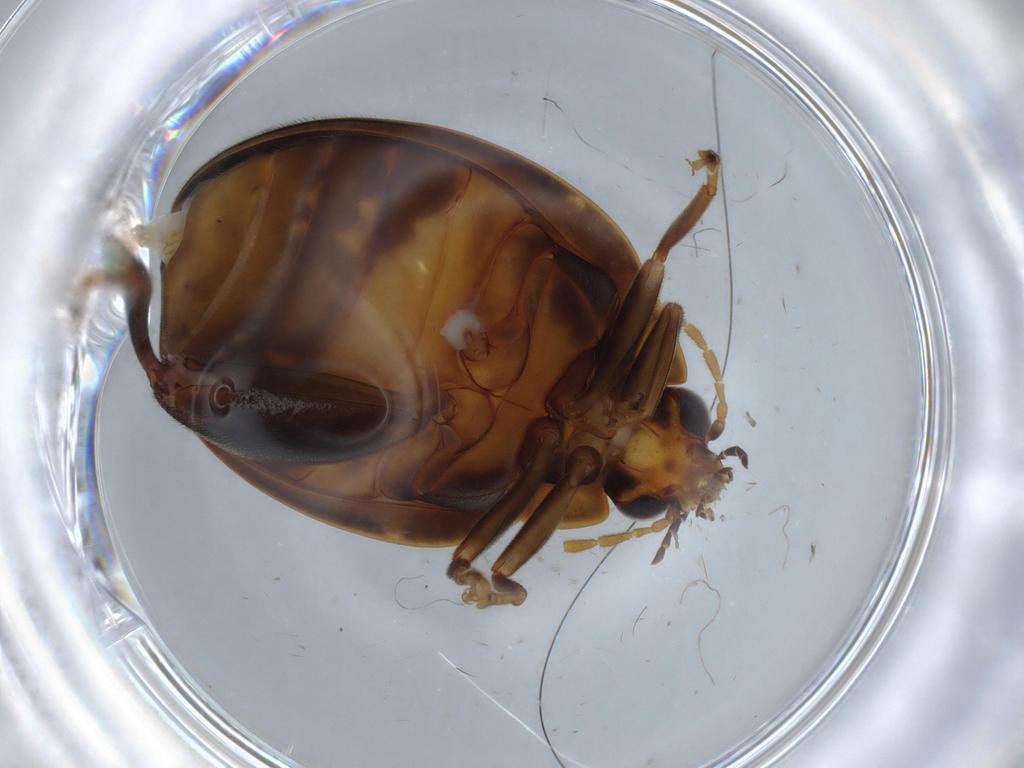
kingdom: Animalia
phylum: Arthropoda
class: Insecta
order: Coleoptera
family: Scirtidae
